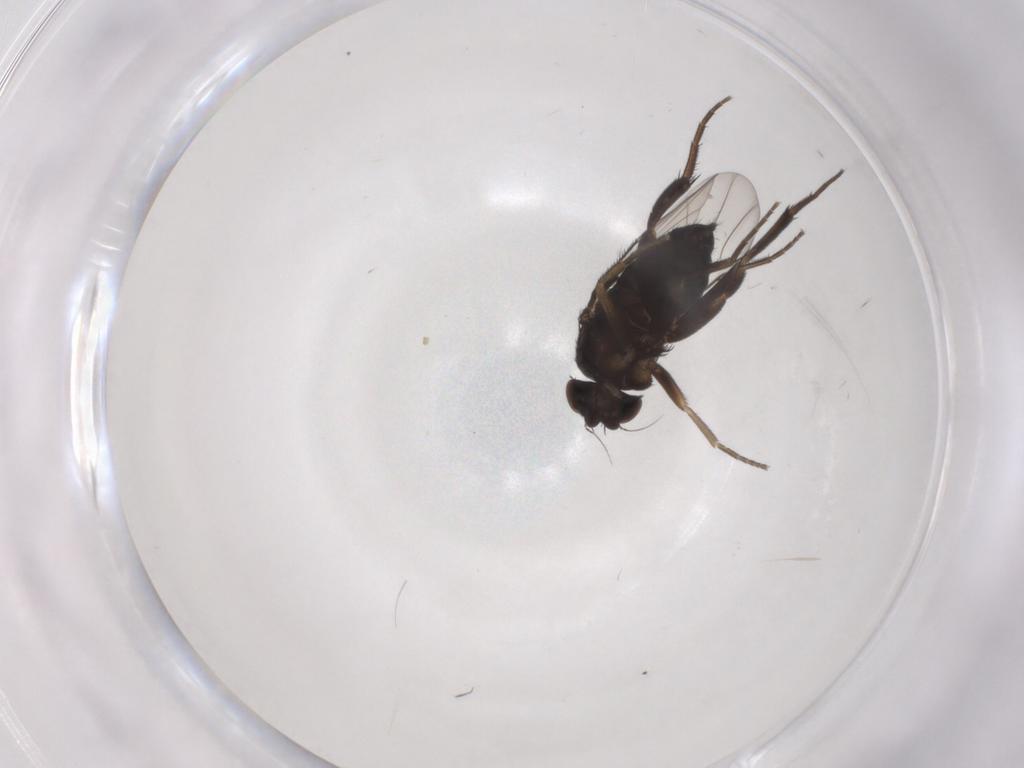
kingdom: Animalia
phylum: Arthropoda
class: Insecta
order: Diptera
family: Phoridae
